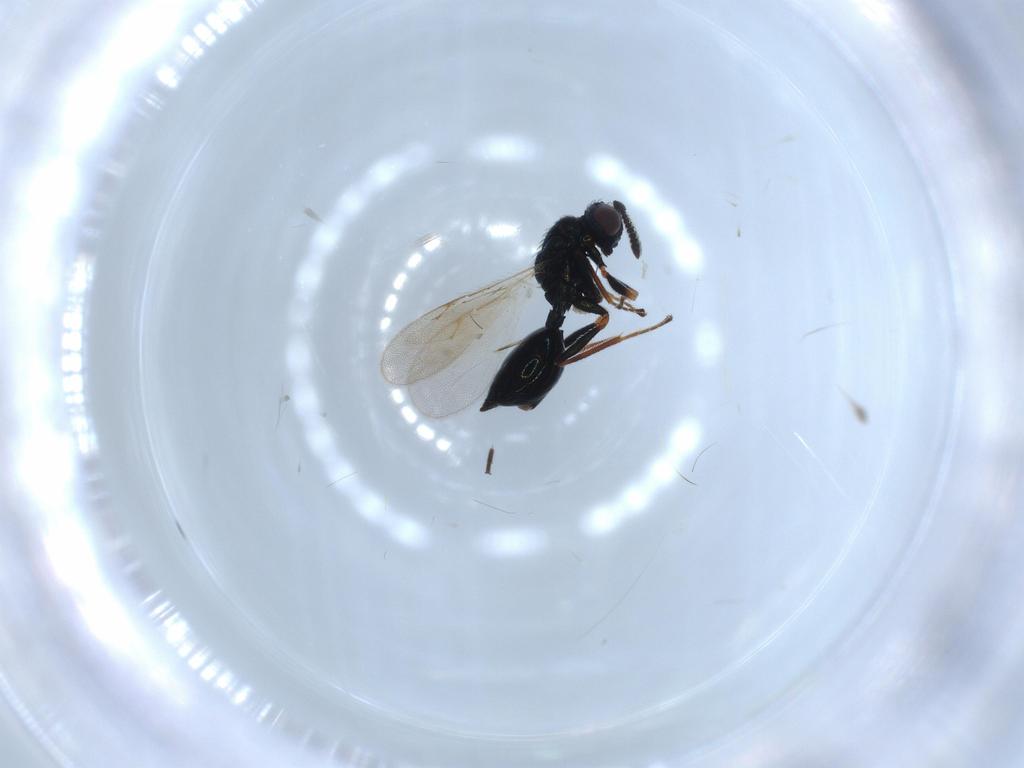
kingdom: Animalia
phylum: Arthropoda
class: Insecta
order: Hymenoptera
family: Chalcidoidea_incertae_sedis
